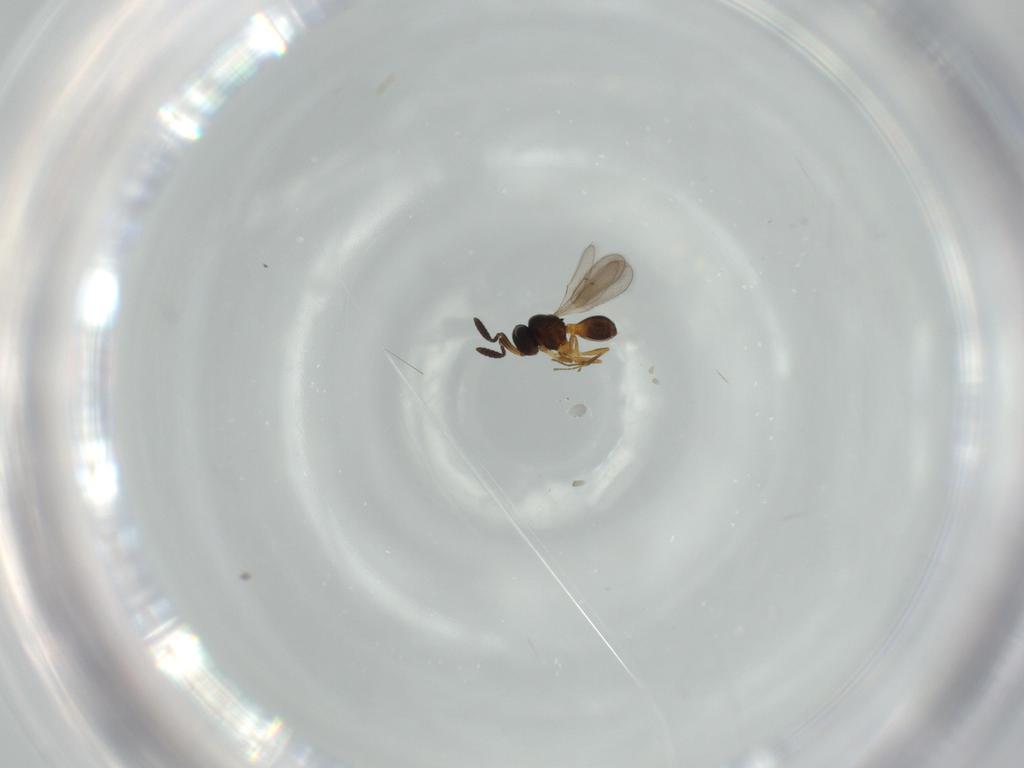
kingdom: Animalia
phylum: Arthropoda
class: Insecta
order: Hymenoptera
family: Scelionidae
